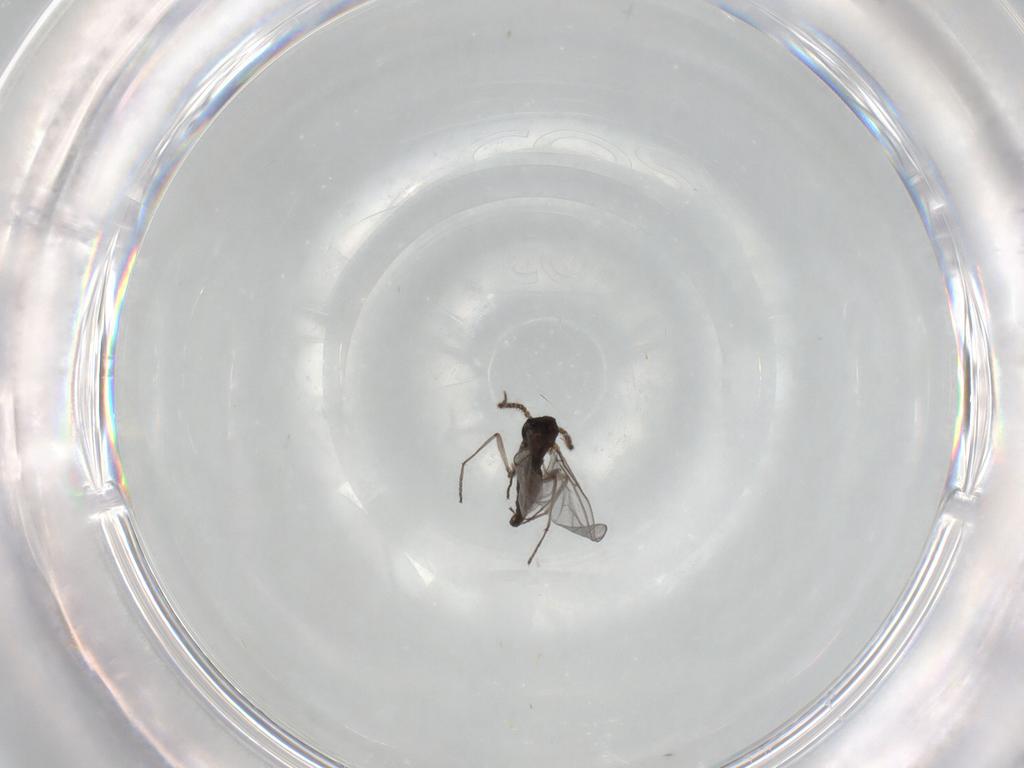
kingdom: Animalia
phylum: Arthropoda
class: Insecta
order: Diptera
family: Sciaridae
